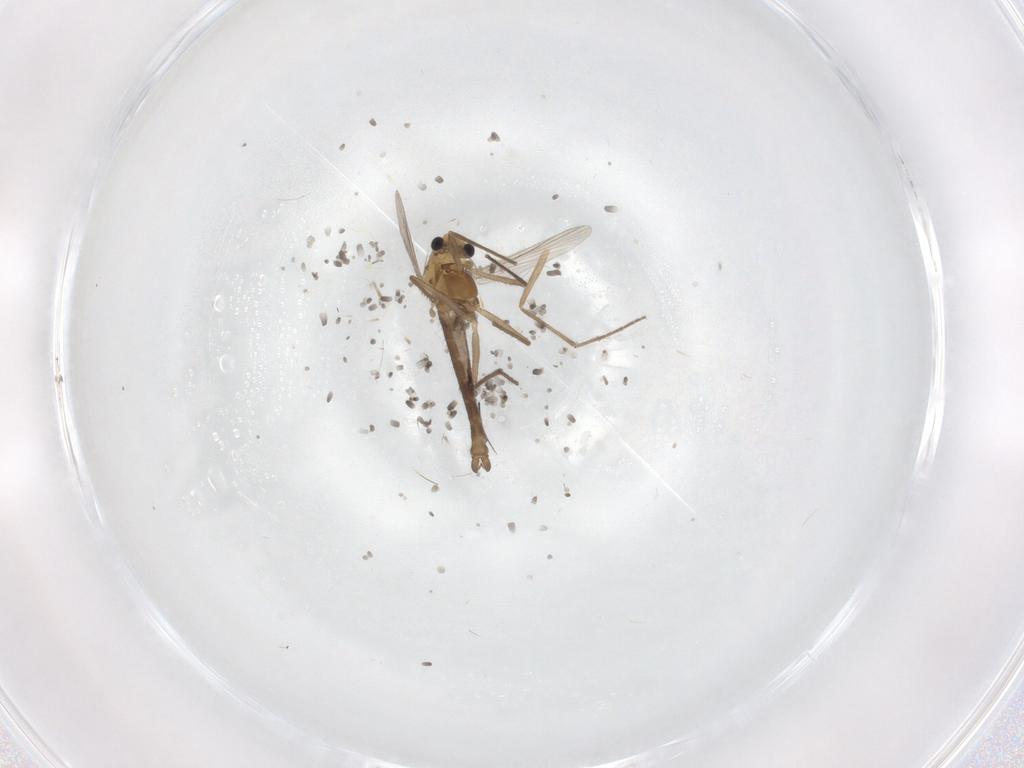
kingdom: Animalia
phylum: Arthropoda
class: Insecta
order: Diptera
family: Chironomidae
